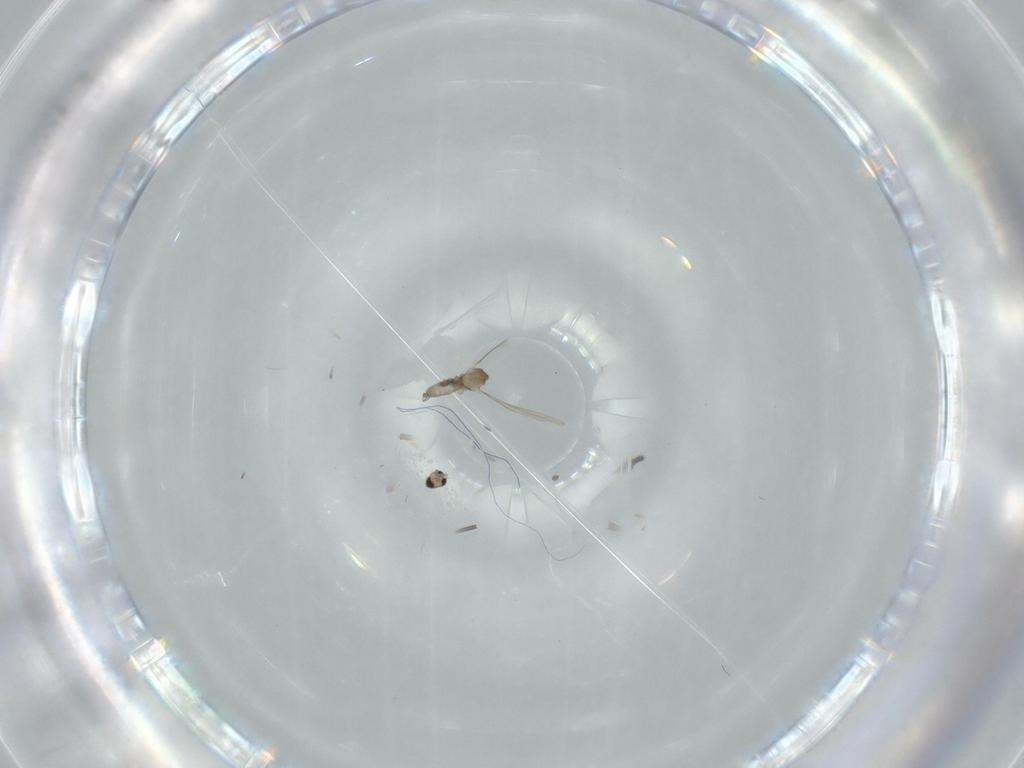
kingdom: Animalia
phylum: Arthropoda
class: Insecta
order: Diptera
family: Cecidomyiidae
